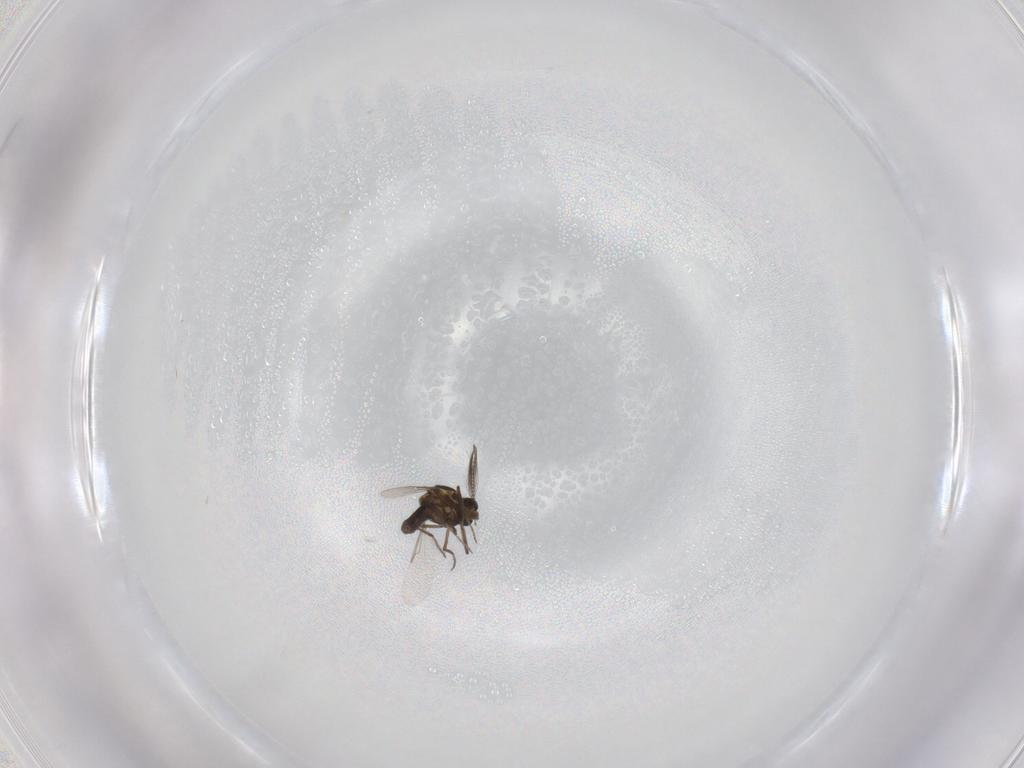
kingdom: Animalia
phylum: Arthropoda
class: Insecta
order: Diptera
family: Ceratopogonidae
